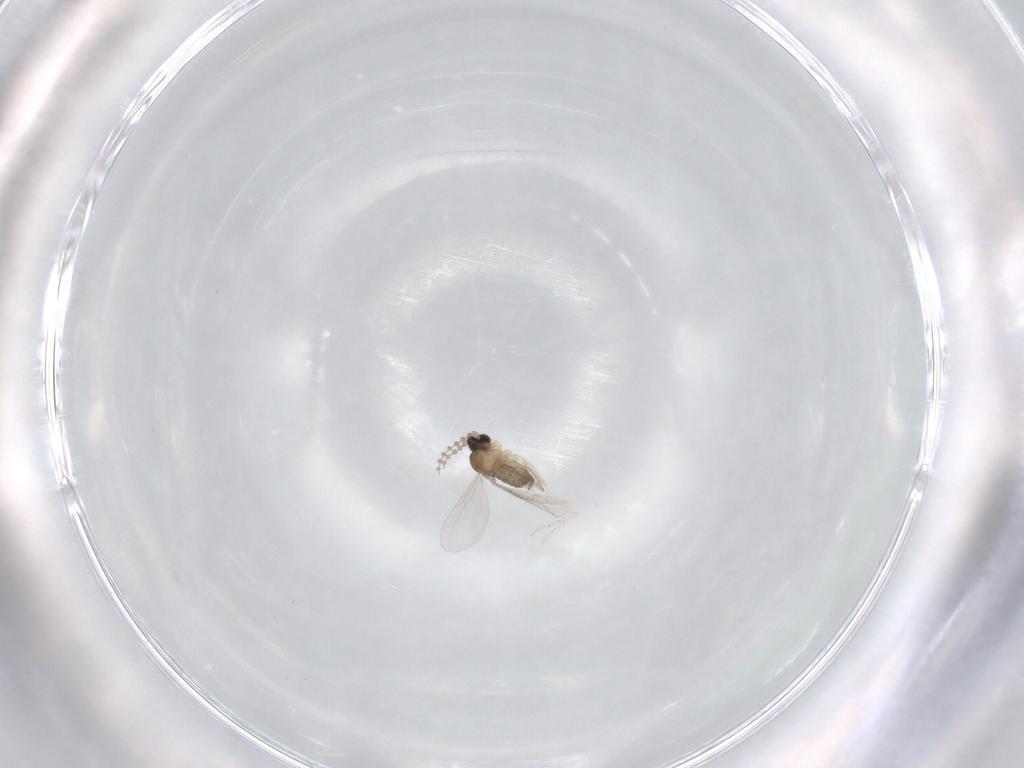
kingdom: Animalia
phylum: Arthropoda
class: Insecta
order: Diptera
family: Mycetophilidae
